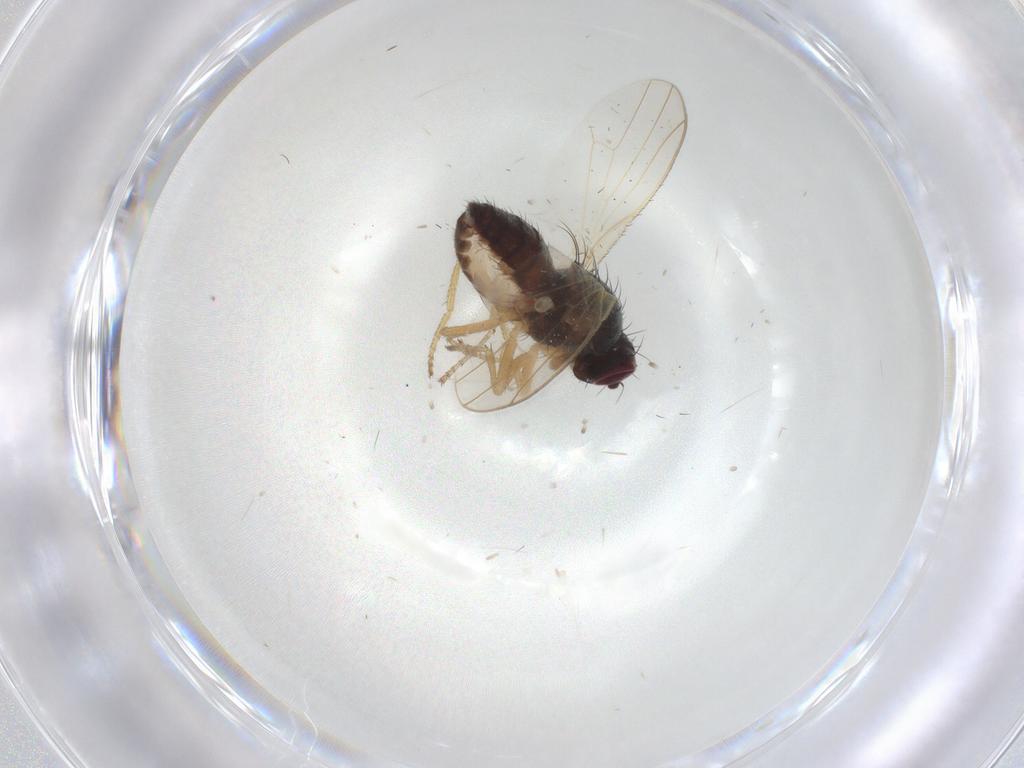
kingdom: Animalia
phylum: Arthropoda
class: Insecta
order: Diptera
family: Heleomyzidae
